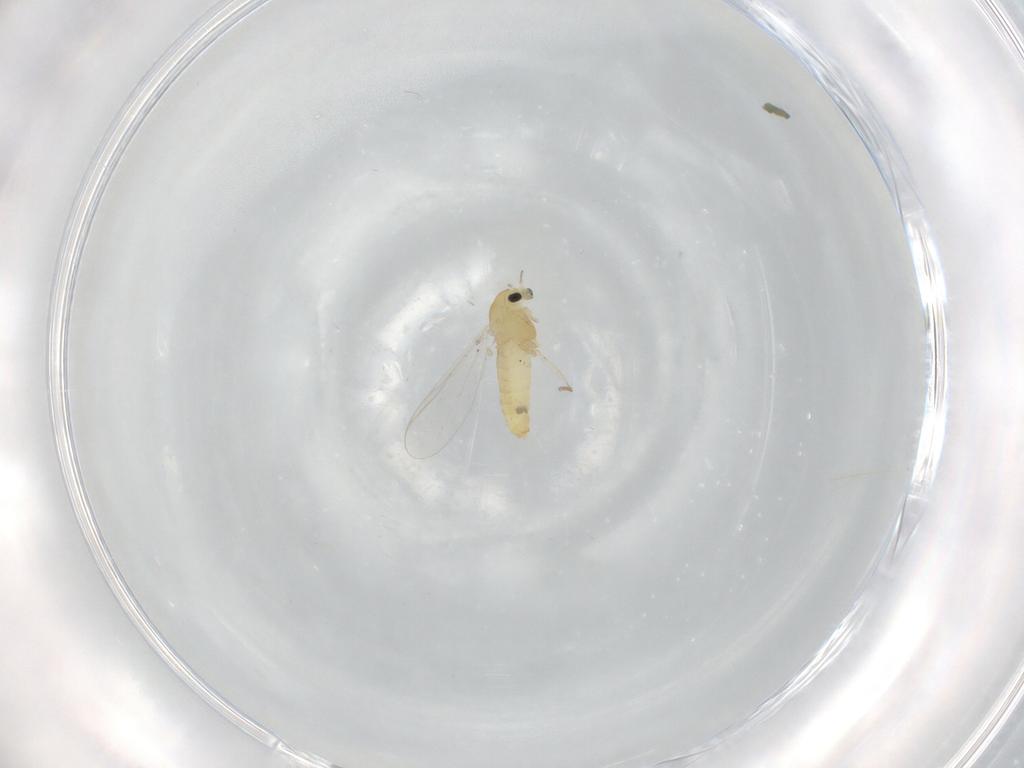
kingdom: Animalia
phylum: Arthropoda
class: Insecta
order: Diptera
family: Chironomidae
